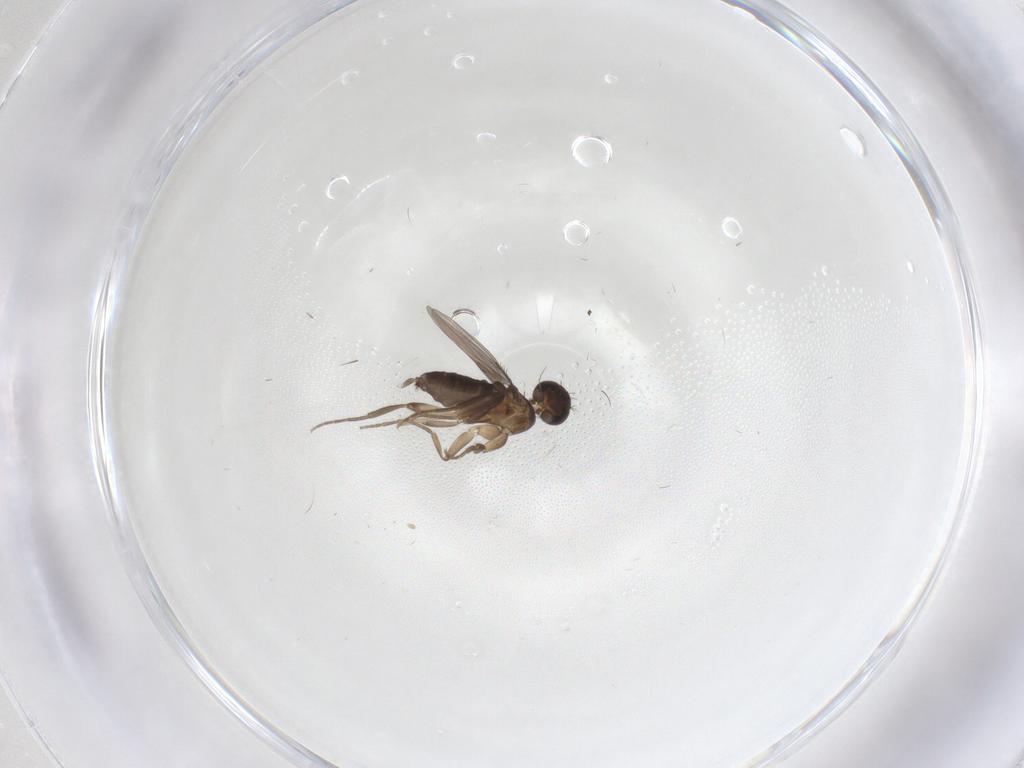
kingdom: Animalia
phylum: Arthropoda
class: Insecta
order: Diptera
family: Phoridae
